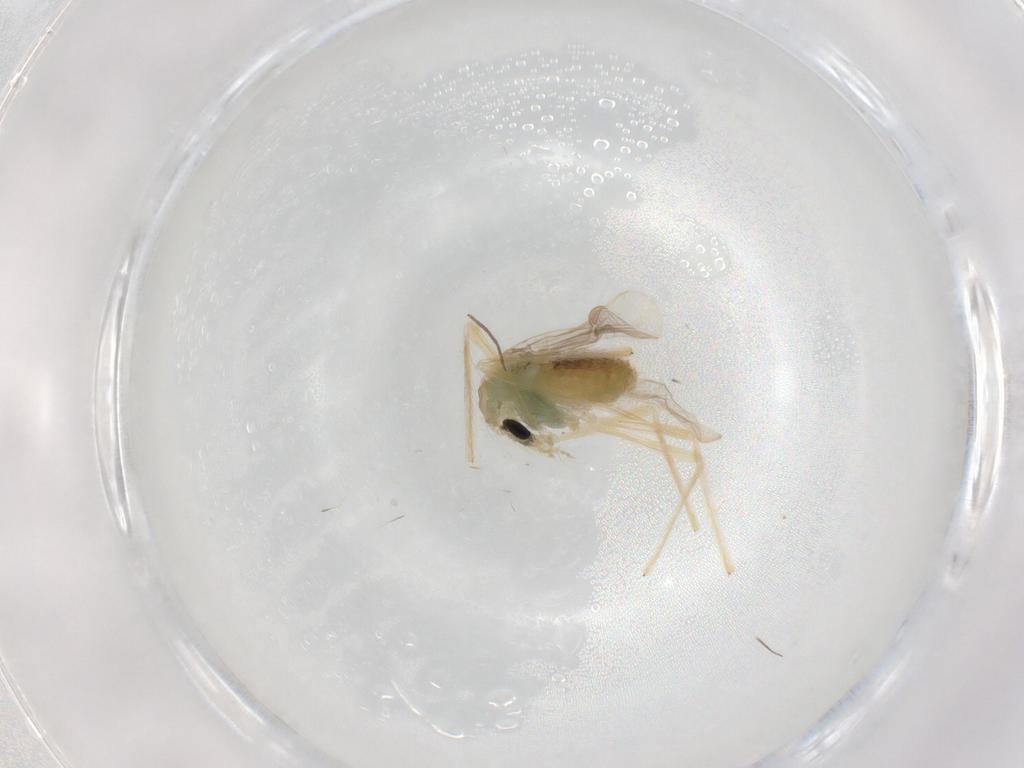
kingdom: Animalia
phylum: Arthropoda
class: Insecta
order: Diptera
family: Chironomidae
